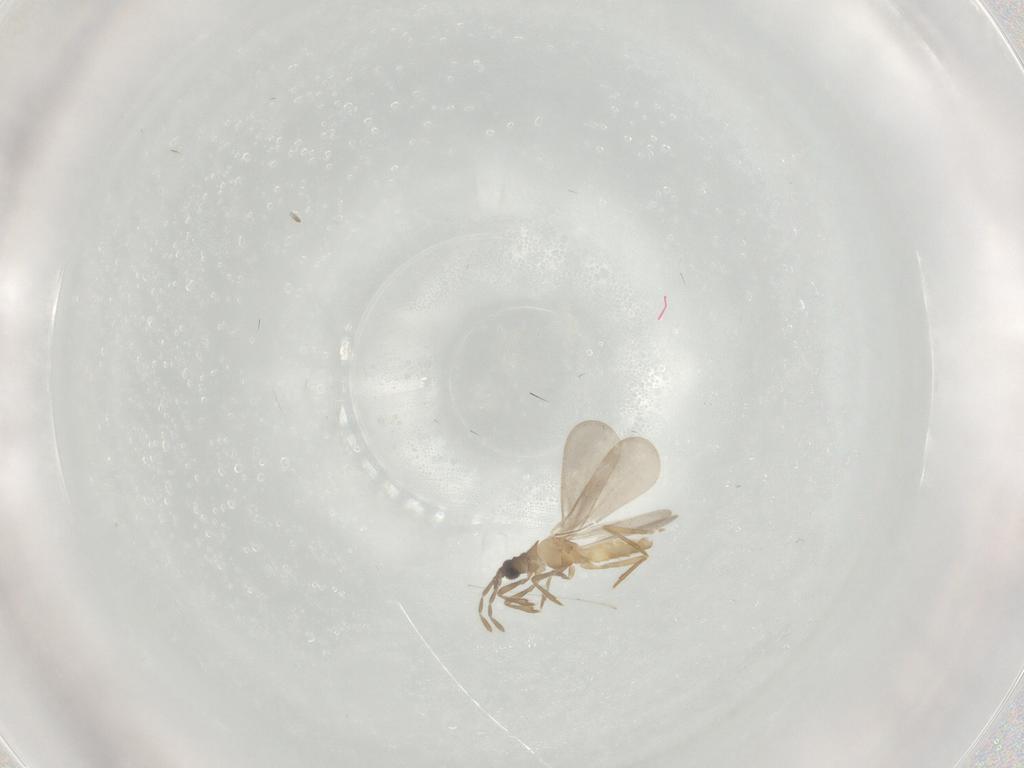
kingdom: Animalia
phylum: Arthropoda
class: Insecta
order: Hemiptera
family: Enicocephalidae
